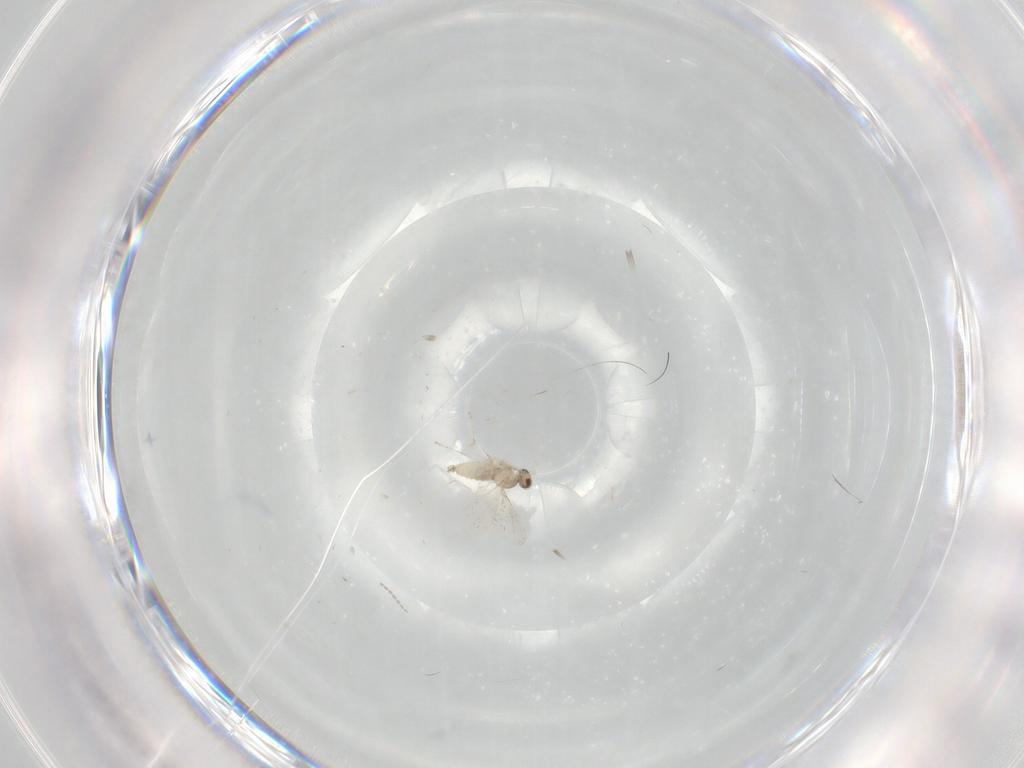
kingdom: Animalia
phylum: Arthropoda
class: Insecta
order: Diptera
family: Cecidomyiidae
